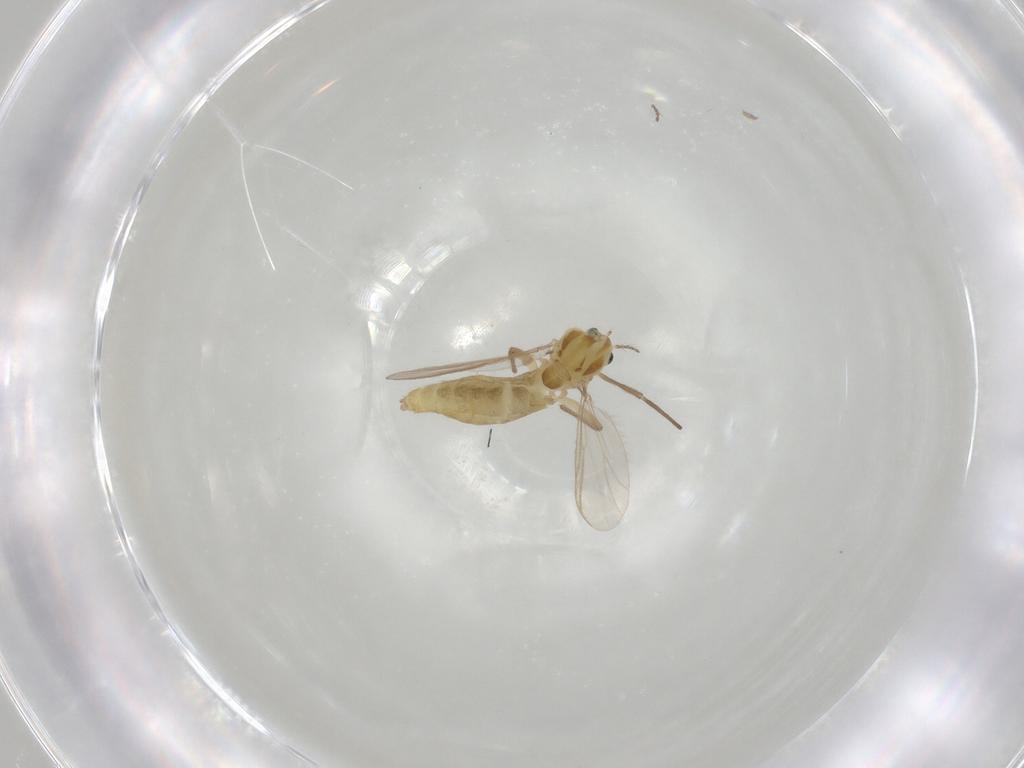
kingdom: Animalia
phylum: Arthropoda
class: Insecta
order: Diptera
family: Chironomidae
